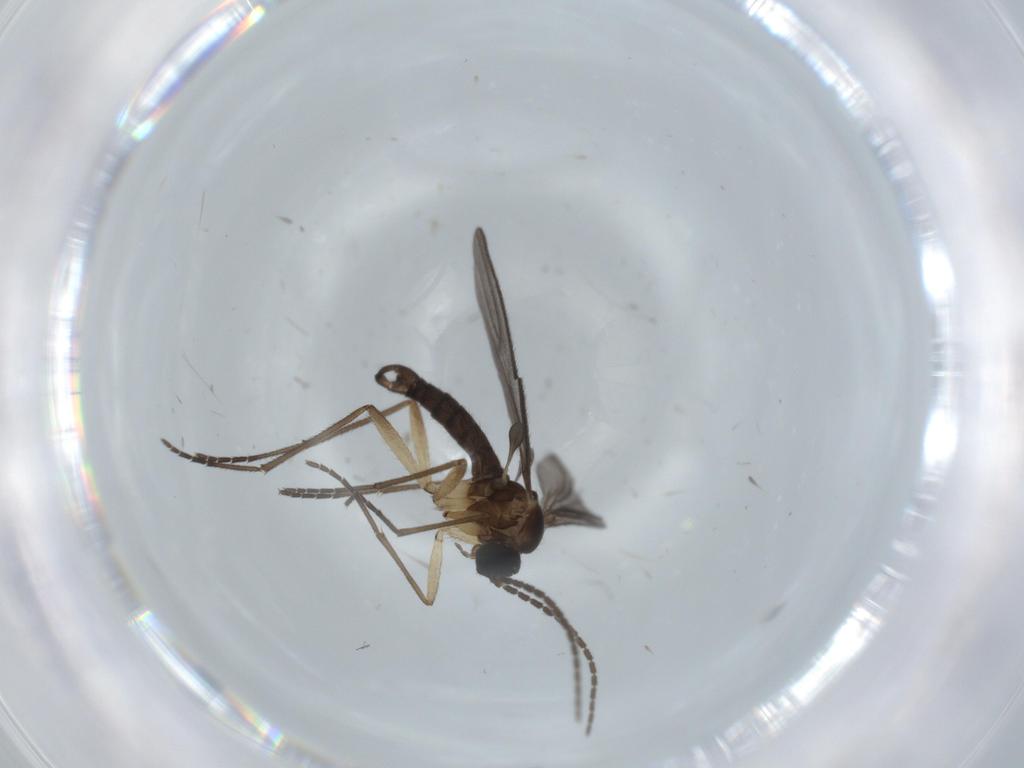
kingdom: Animalia
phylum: Arthropoda
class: Insecta
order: Diptera
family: Sciaridae
